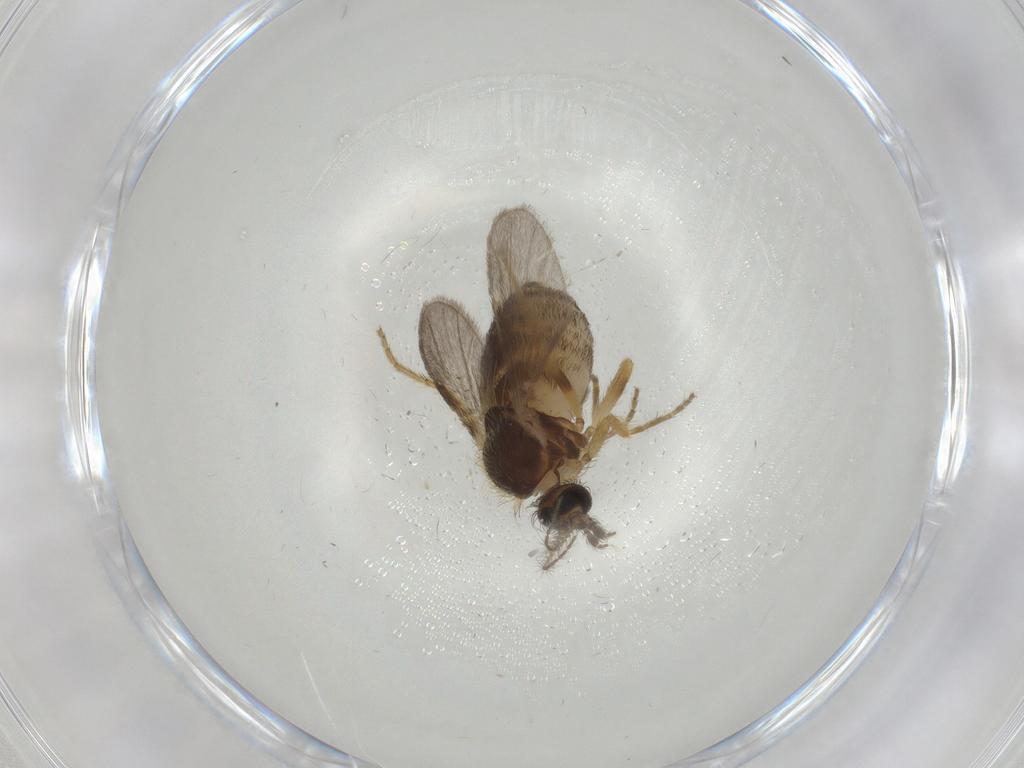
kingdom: Animalia
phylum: Arthropoda
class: Insecta
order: Diptera
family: Ceratopogonidae
